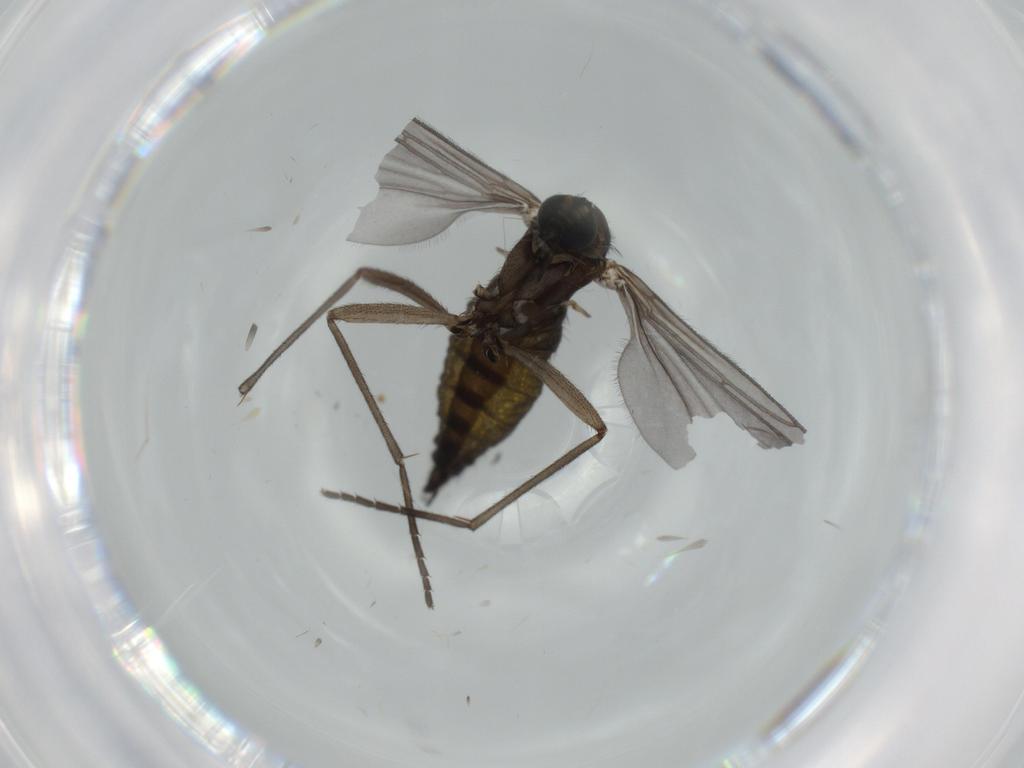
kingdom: Animalia
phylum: Arthropoda
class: Insecta
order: Diptera
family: Sciaridae
